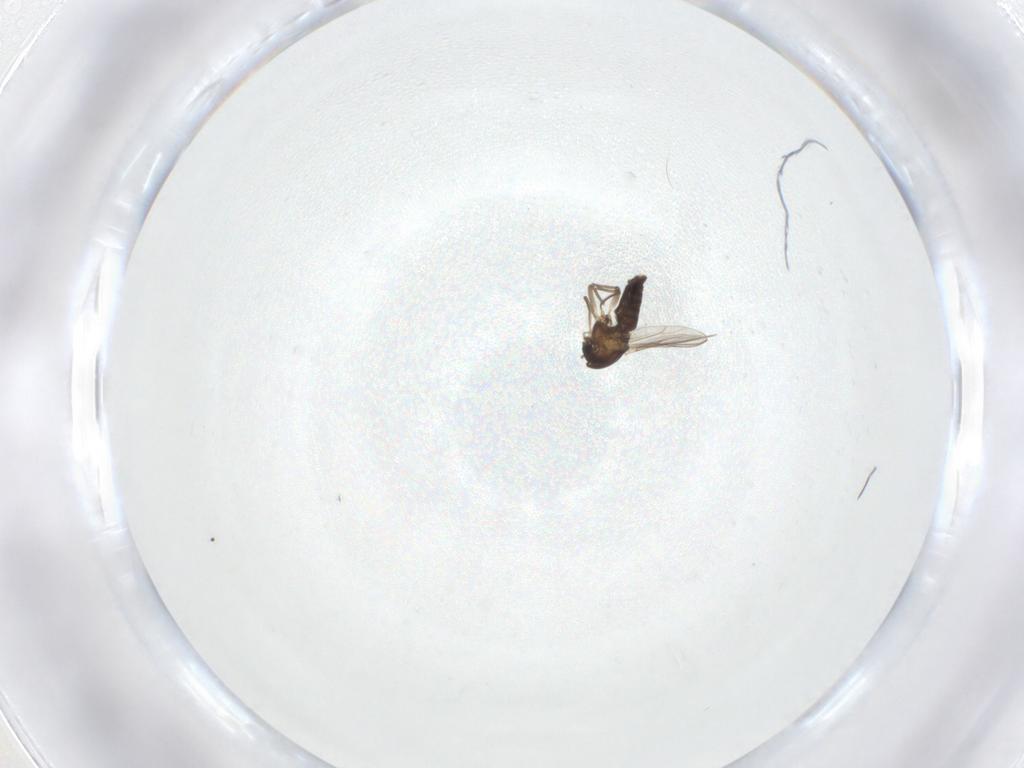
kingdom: Animalia
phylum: Arthropoda
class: Insecta
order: Diptera
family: Chironomidae
